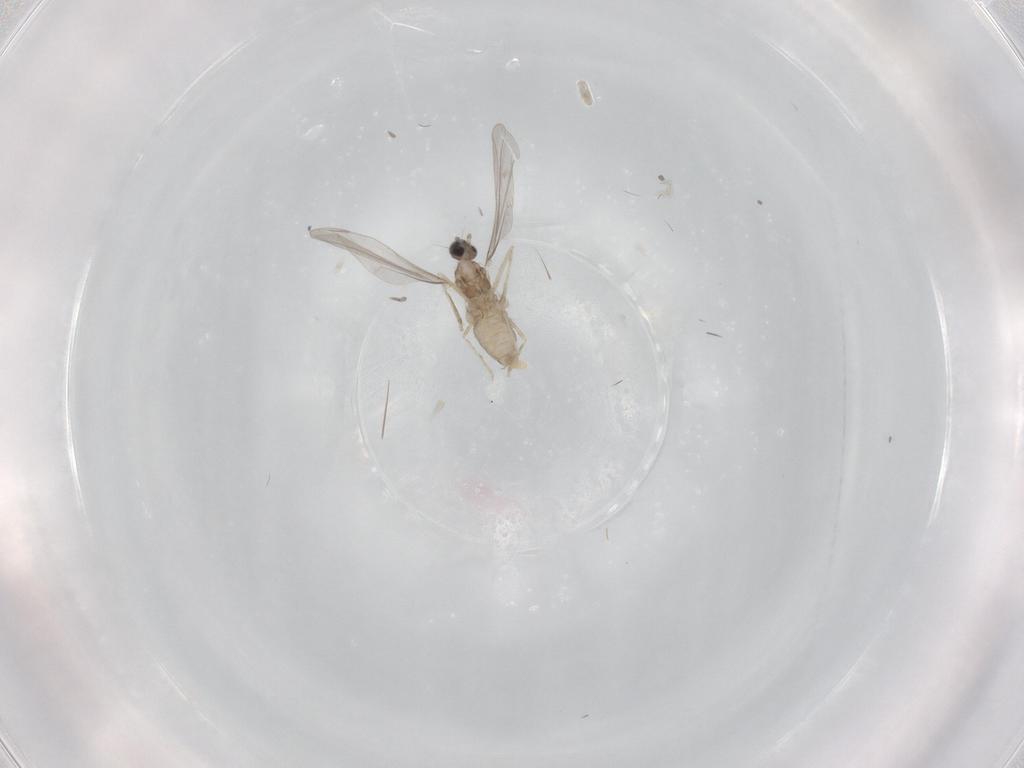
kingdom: Animalia
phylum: Arthropoda
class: Insecta
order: Diptera
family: Cecidomyiidae
